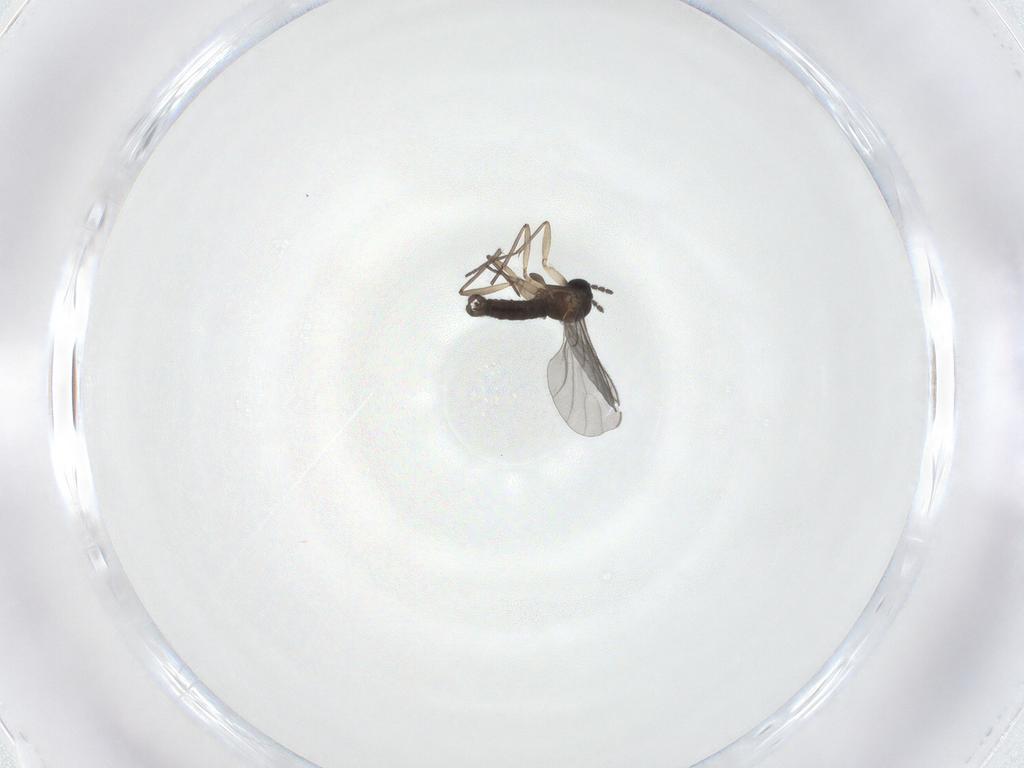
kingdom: Animalia
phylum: Arthropoda
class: Insecta
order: Diptera
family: Sciaridae
